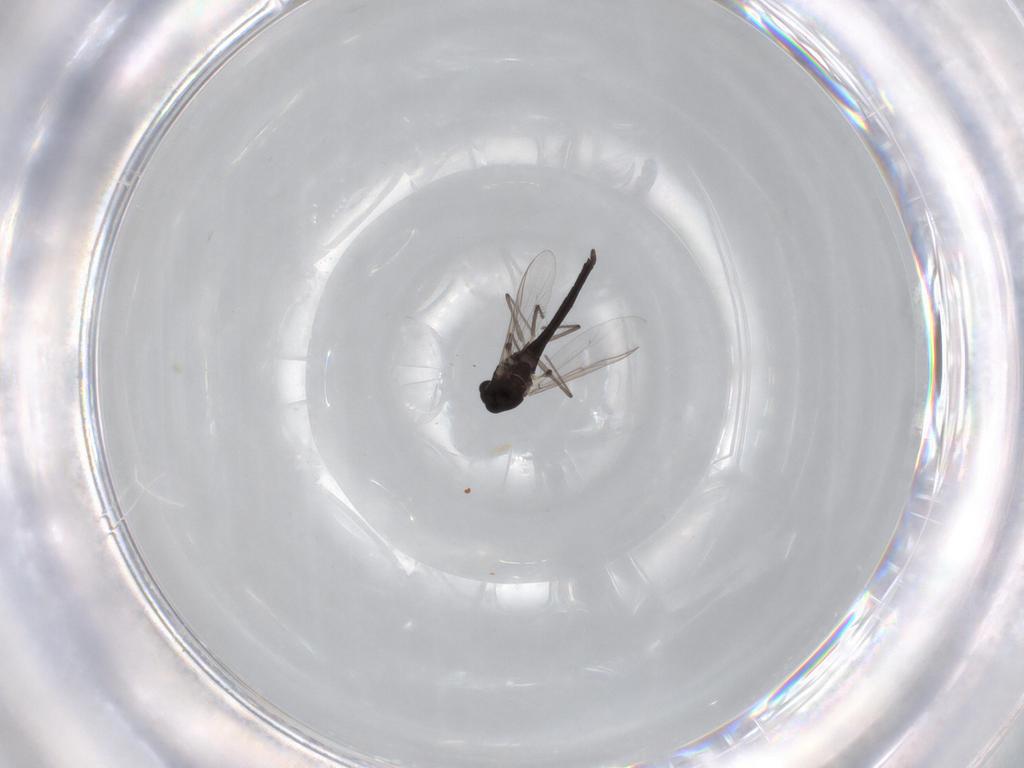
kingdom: Animalia
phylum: Arthropoda
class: Insecta
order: Diptera
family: Chironomidae
